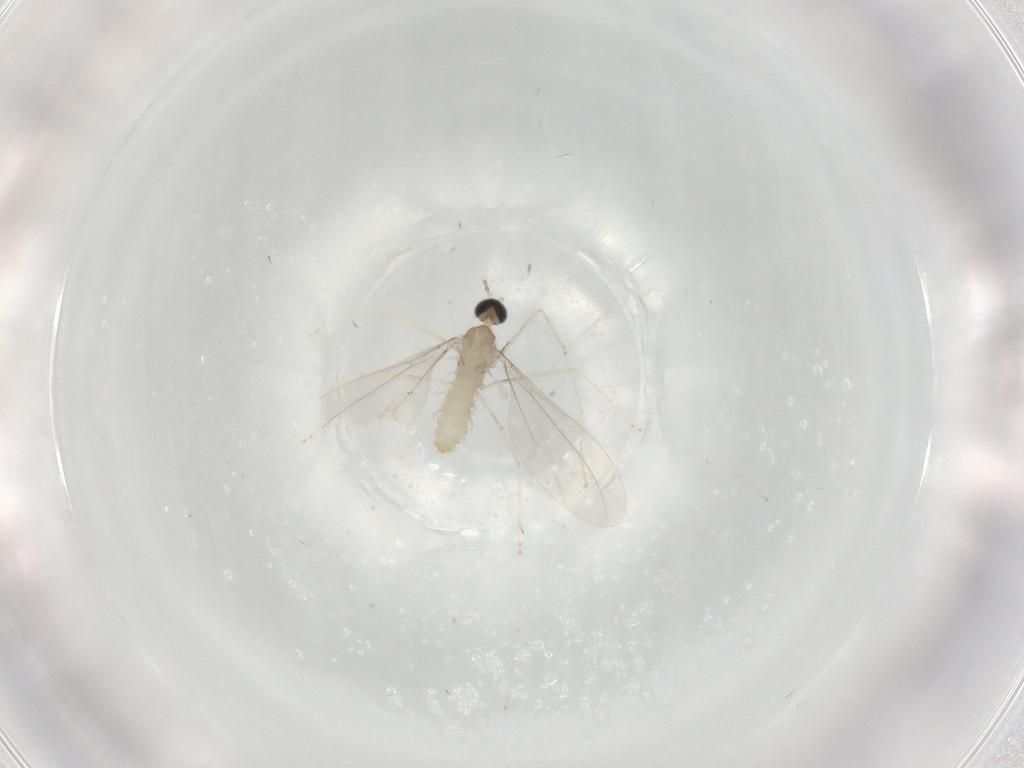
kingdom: Animalia
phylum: Arthropoda
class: Insecta
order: Diptera
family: Cecidomyiidae
